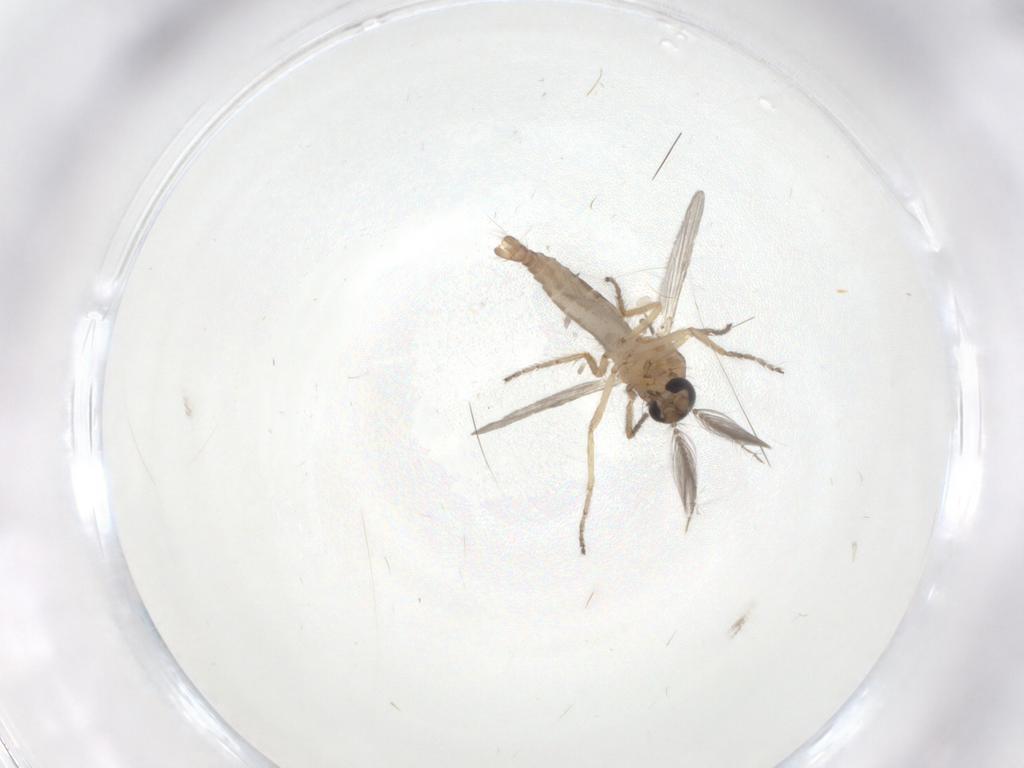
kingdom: Animalia
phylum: Arthropoda
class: Insecta
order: Diptera
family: Ceratopogonidae
